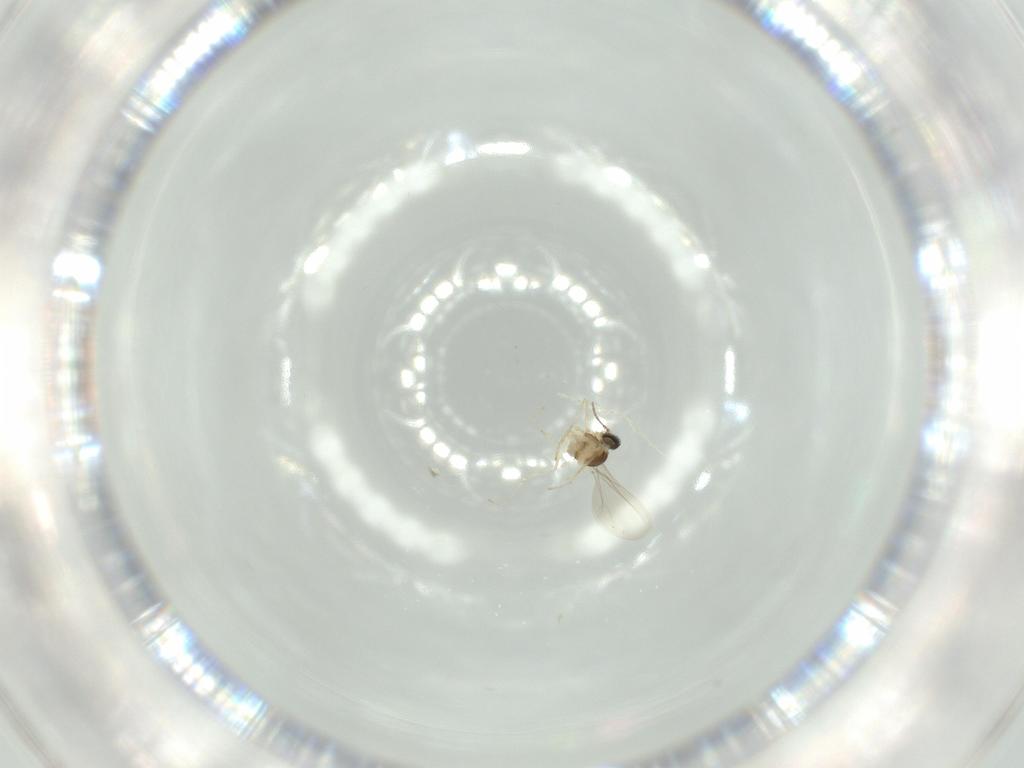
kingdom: Animalia
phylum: Arthropoda
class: Insecta
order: Diptera
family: Cecidomyiidae
